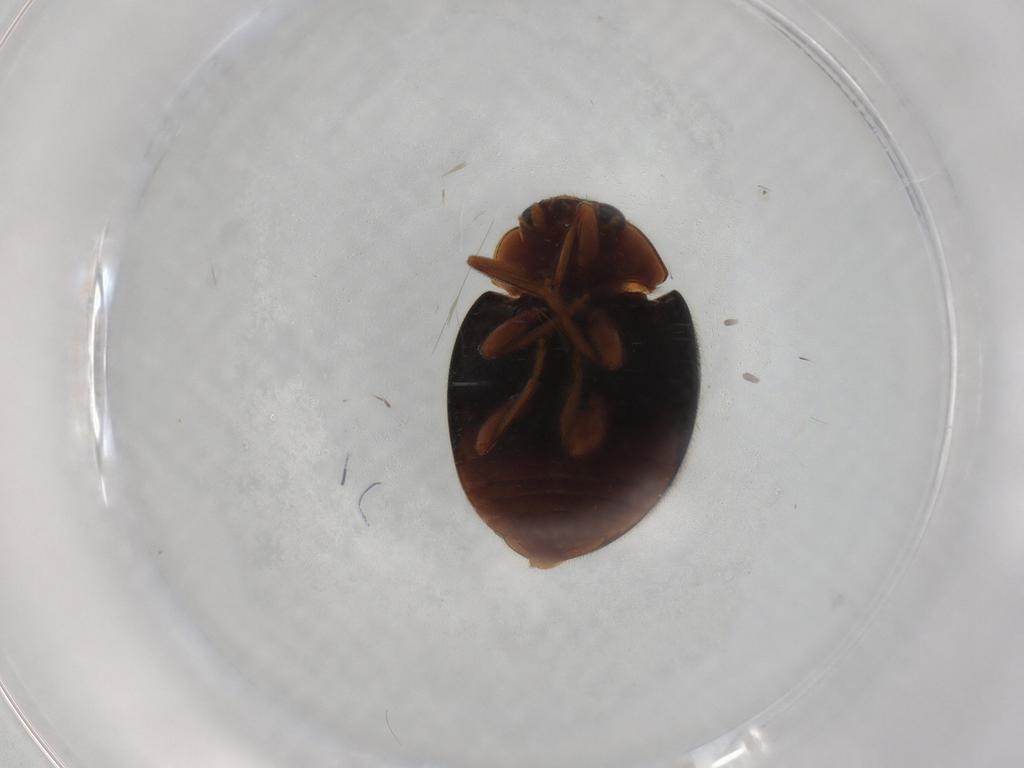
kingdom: Animalia
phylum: Arthropoda
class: Insecta
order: Coleoptera
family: Coccinellidae
